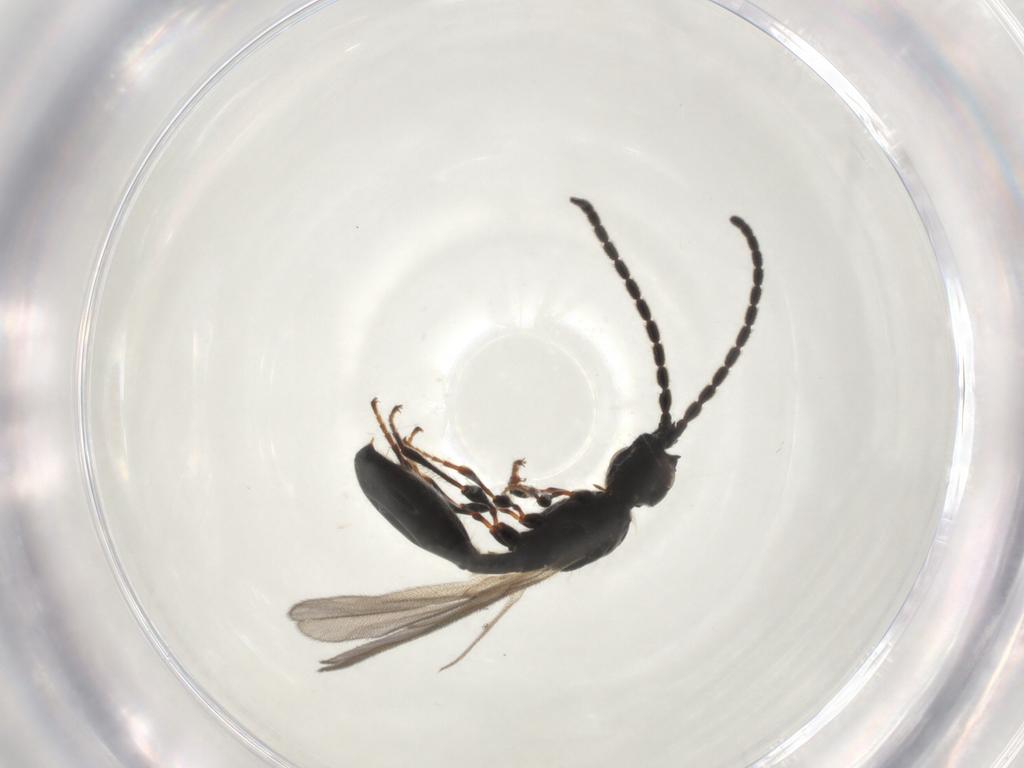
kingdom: Animalia
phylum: Arthropoda
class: Insecta
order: Hymenoptera
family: Diapriidae
